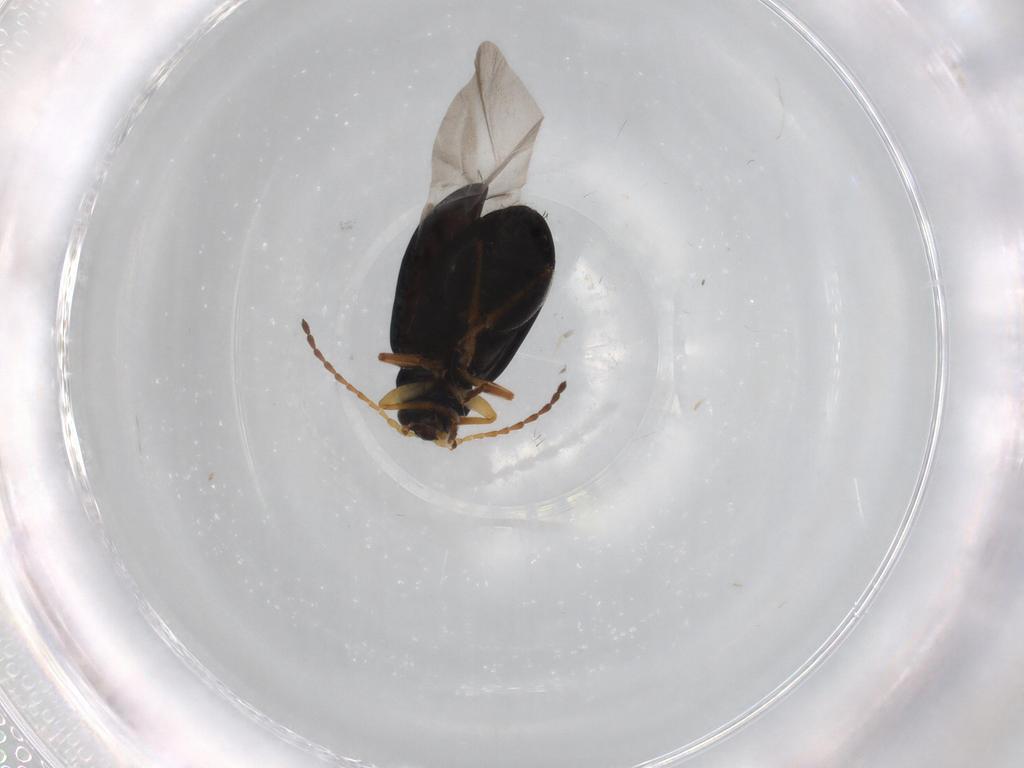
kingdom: Animalia
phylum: Arthropoda
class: Insecta
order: Coleoptera
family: Chrysomelidae
